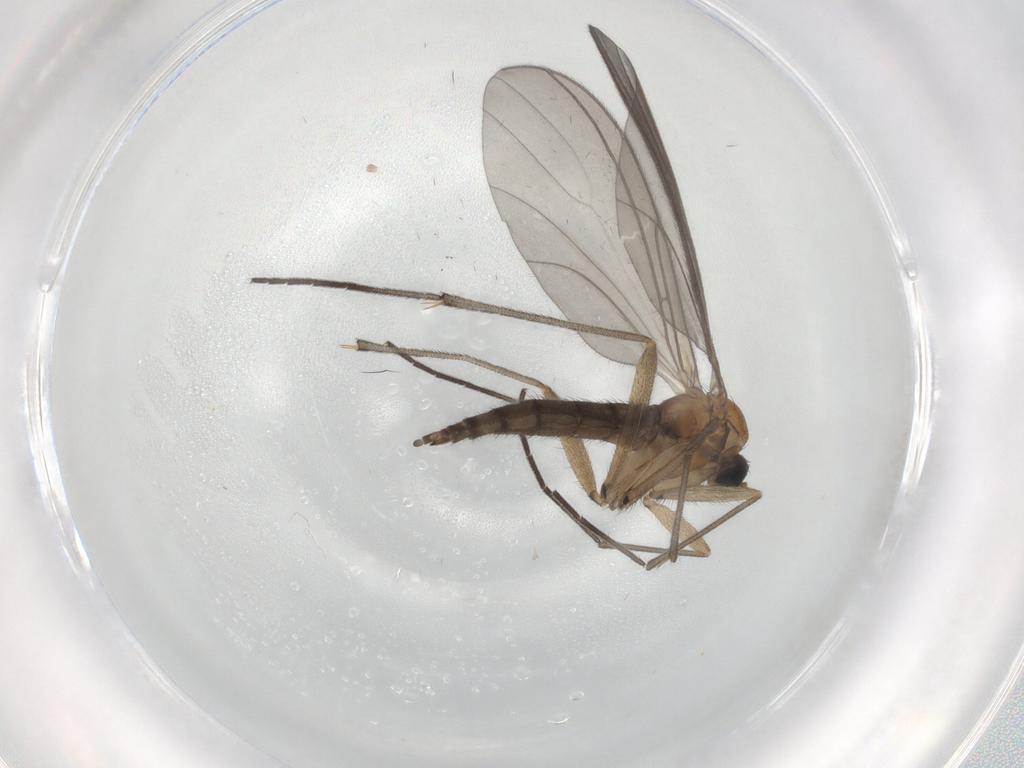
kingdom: Animalia
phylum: Arthropoda
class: Insecta
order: Diptera
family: Sciaridae
